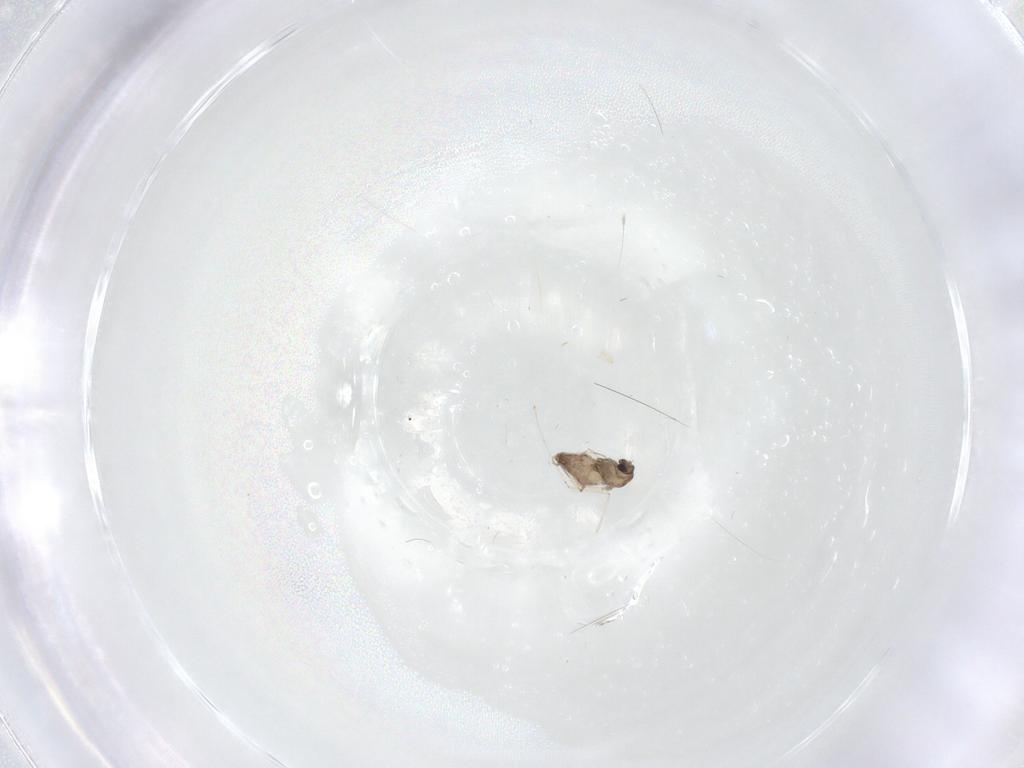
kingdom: Animalia
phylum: Arthropoda
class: Insecta
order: Diptera
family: Chironomidae
